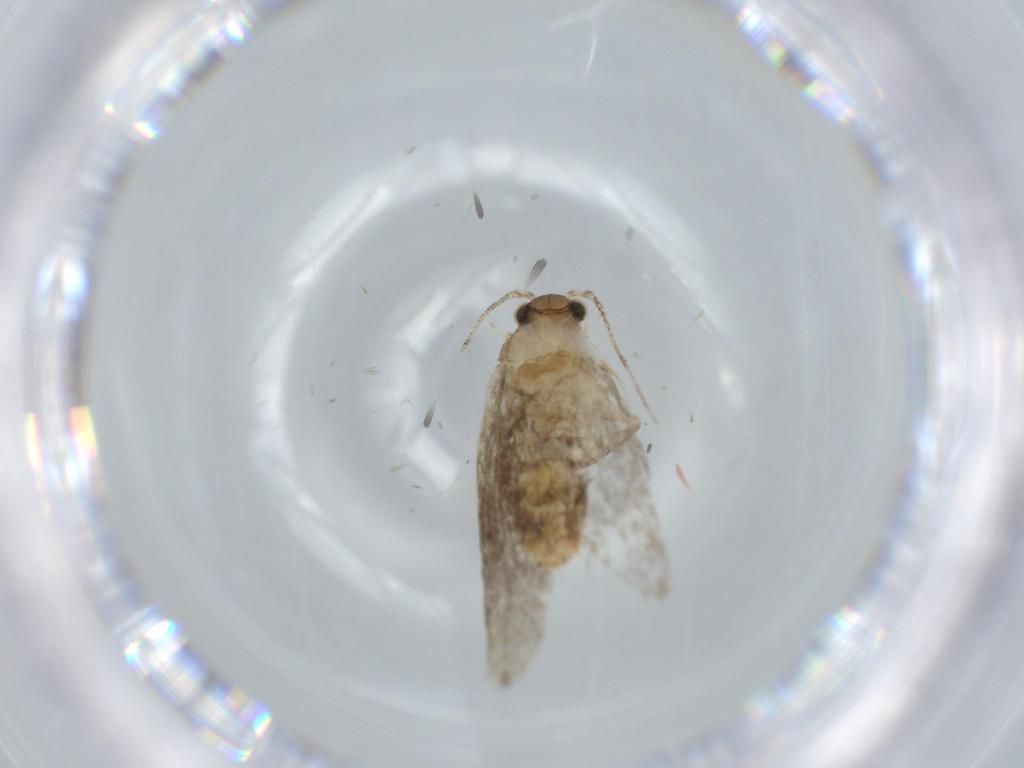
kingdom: Animalia
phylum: Arthropoda
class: Insecta
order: Lepidoptera
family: Tineidae
